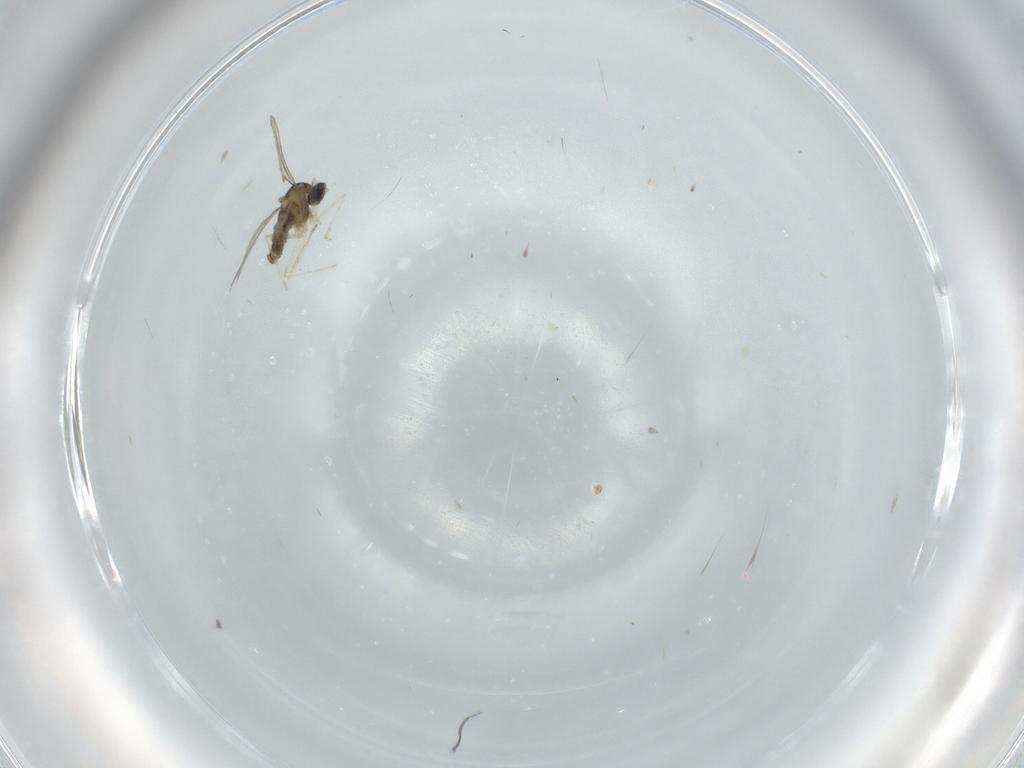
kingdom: Animalia
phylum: Arthropoda
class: Insecta
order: Diptera
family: Cecidomyiidae
